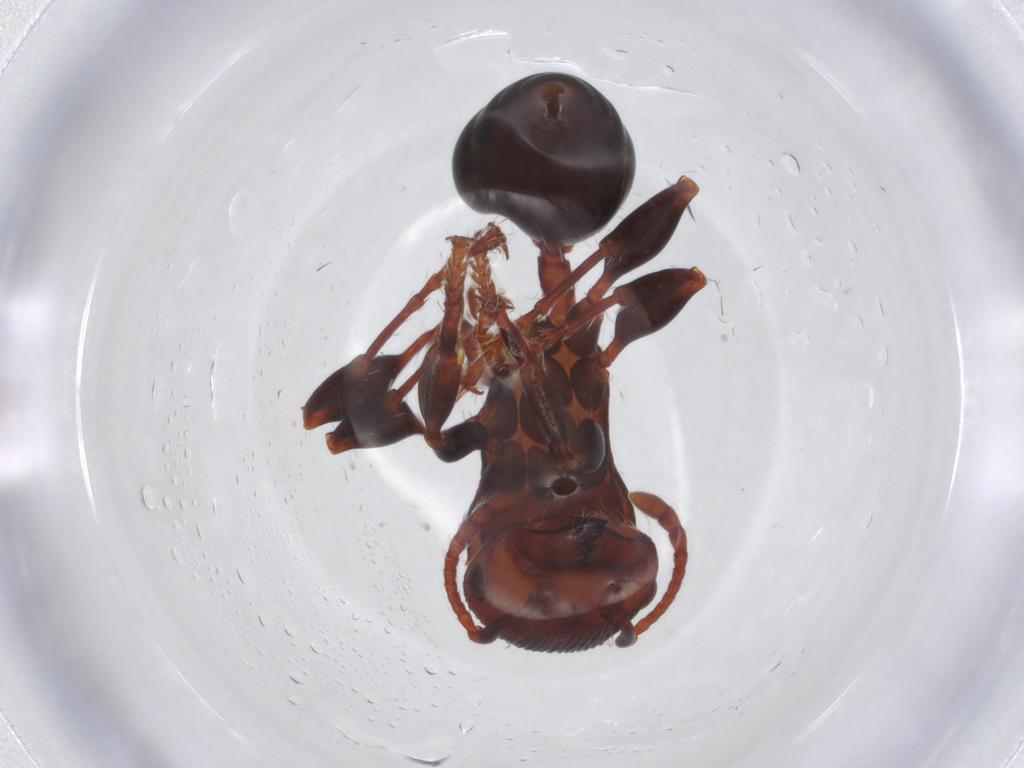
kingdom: Animalia
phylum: Arthropoda
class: Insecta
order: Hymenoptera
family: Formicidae
